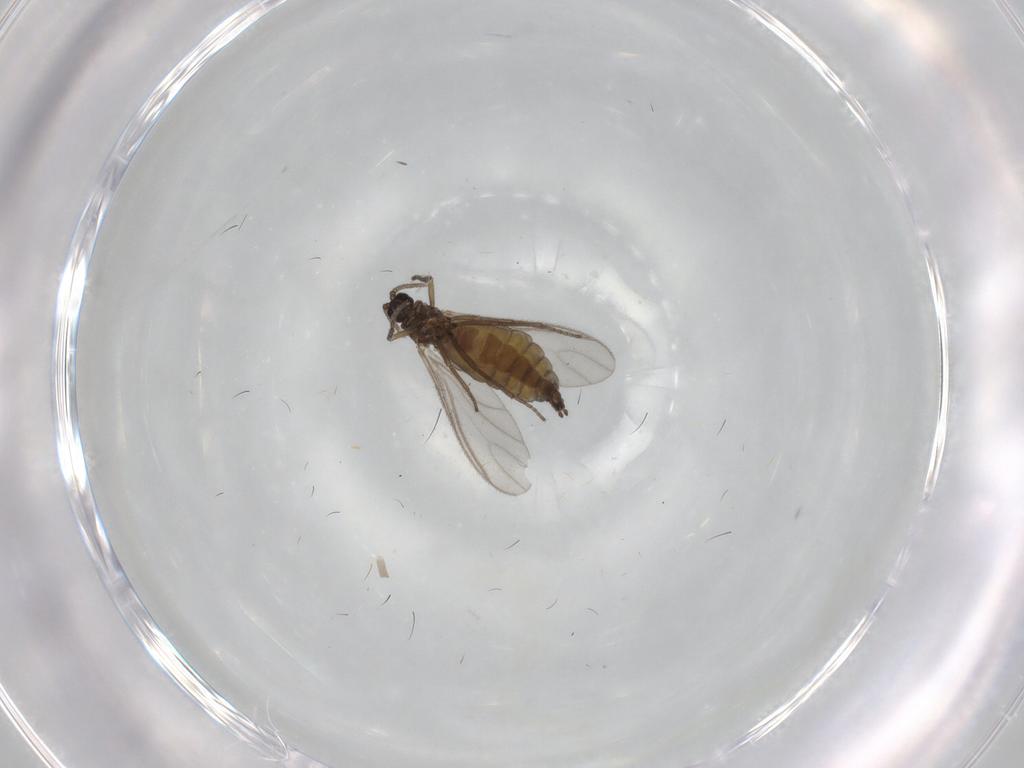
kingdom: Animalia
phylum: Arthropoda
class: Insecta
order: Diptera
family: Sciaridae
